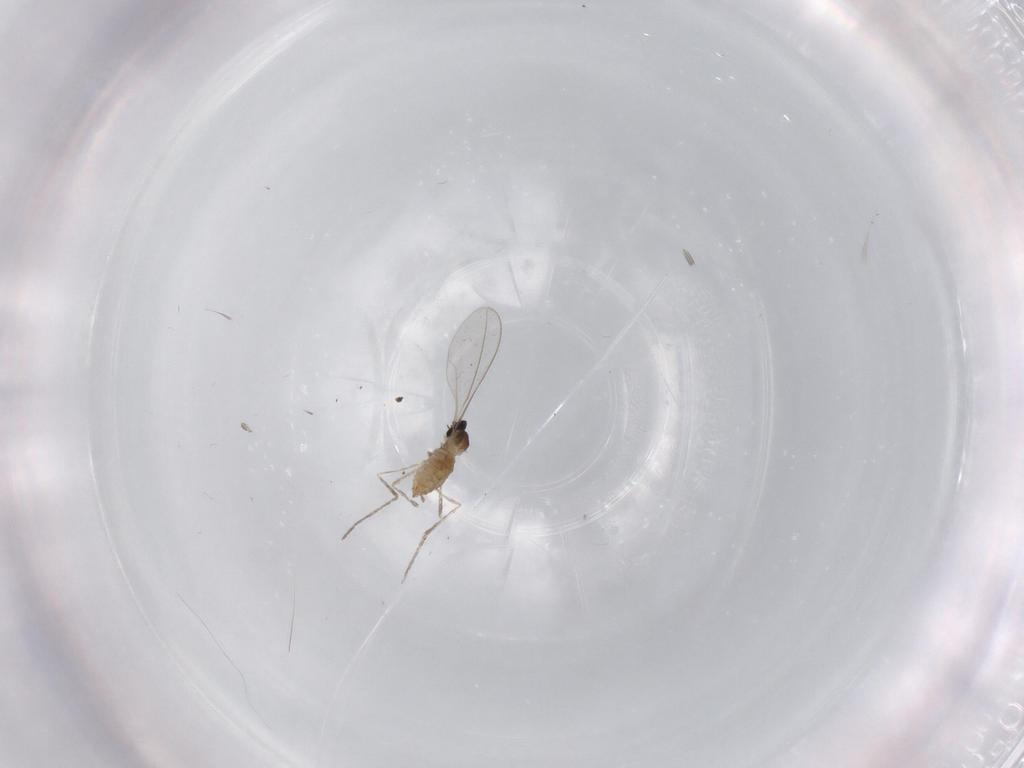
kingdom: Animalia
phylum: Arthropoda
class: Insecta
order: Diptera
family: Cecidomyiidae
